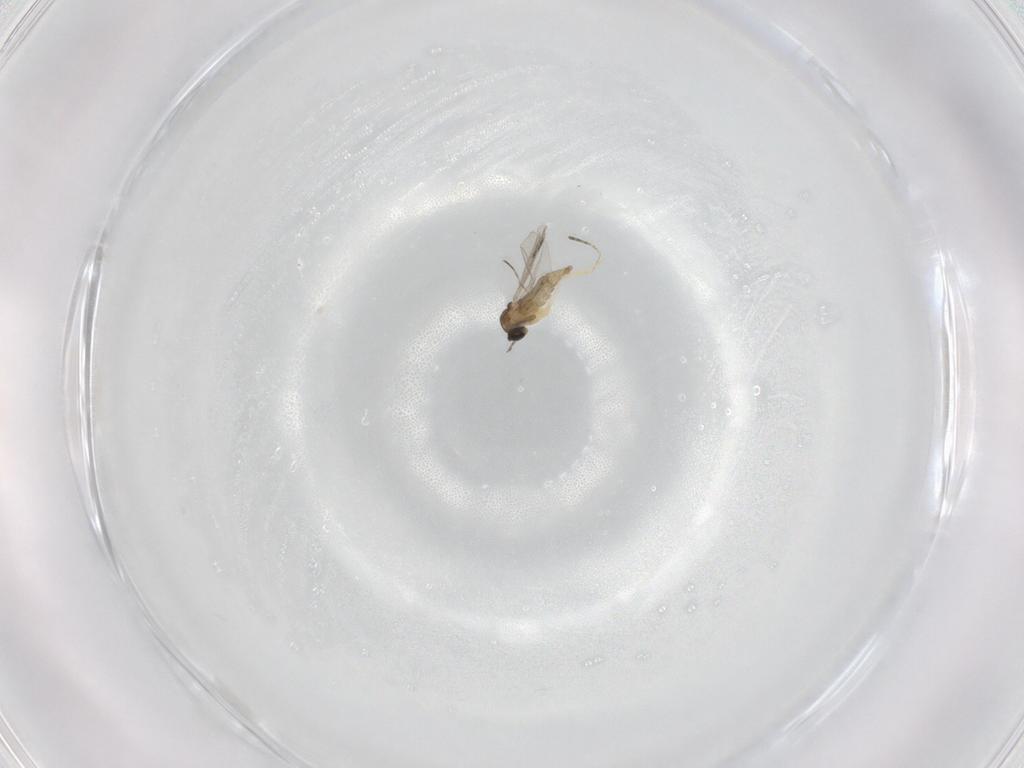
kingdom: Animalia
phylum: Arthropoda
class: Insecta
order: Diptera
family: Cecidomyiidae
